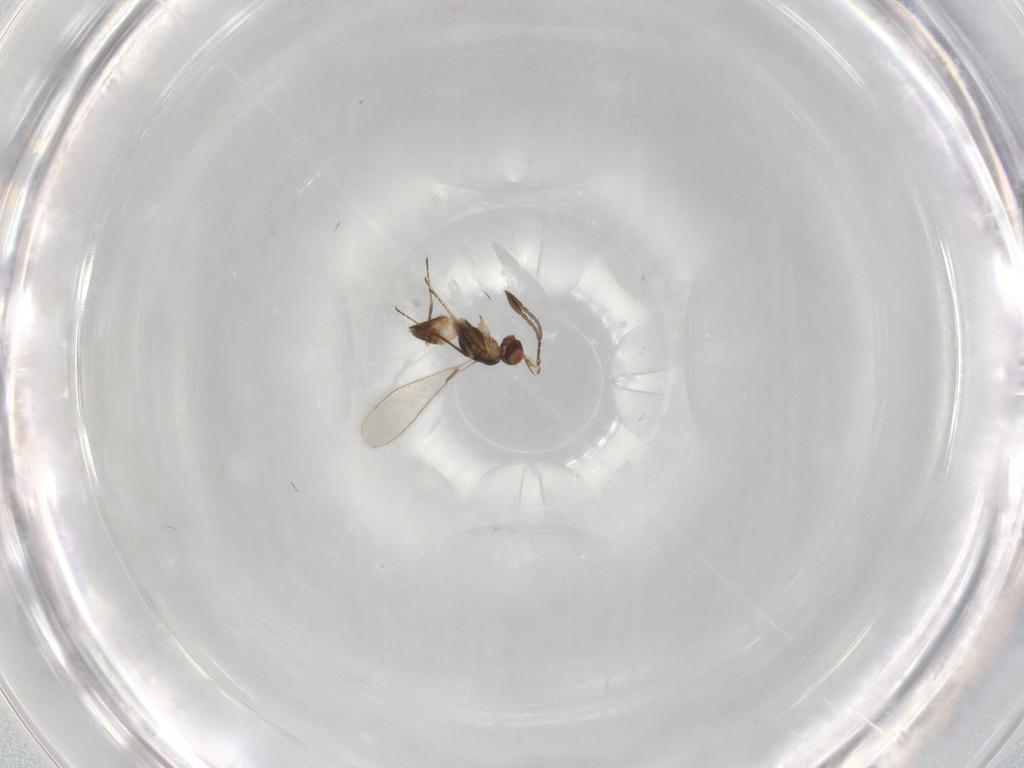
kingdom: Animalia
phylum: Arthropoda
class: Insecta
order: Hymenoptera
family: Mymaridae
